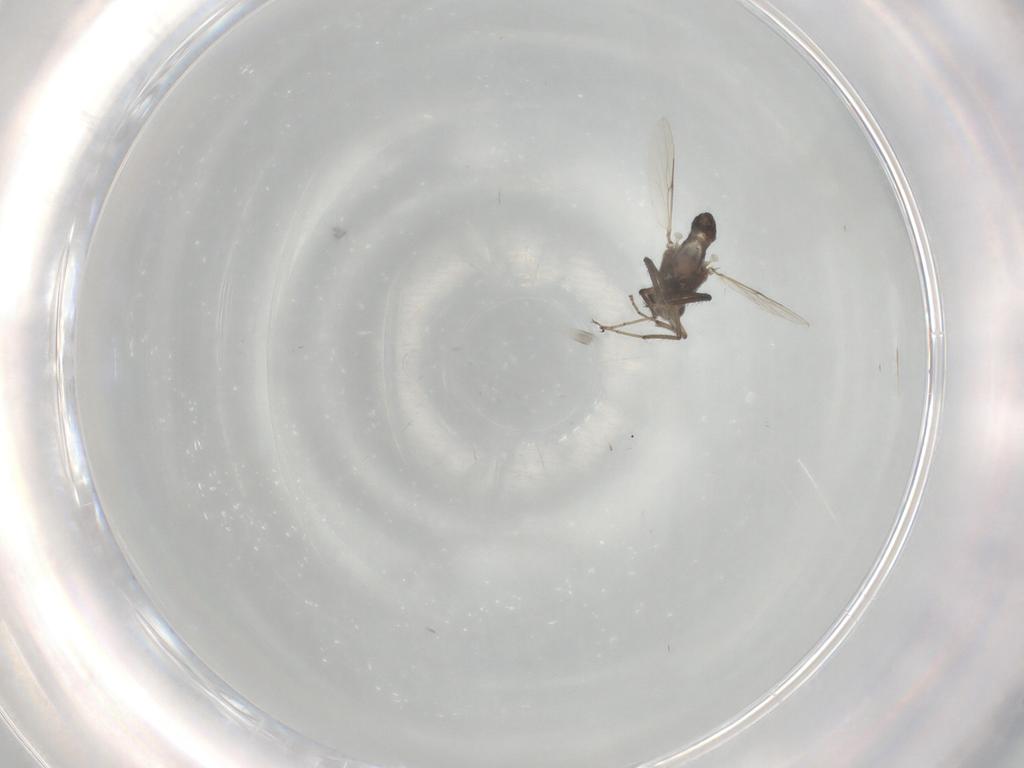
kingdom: Animalia
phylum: Arthropoda
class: Insecta
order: Diptera
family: Ceratopogonidae
